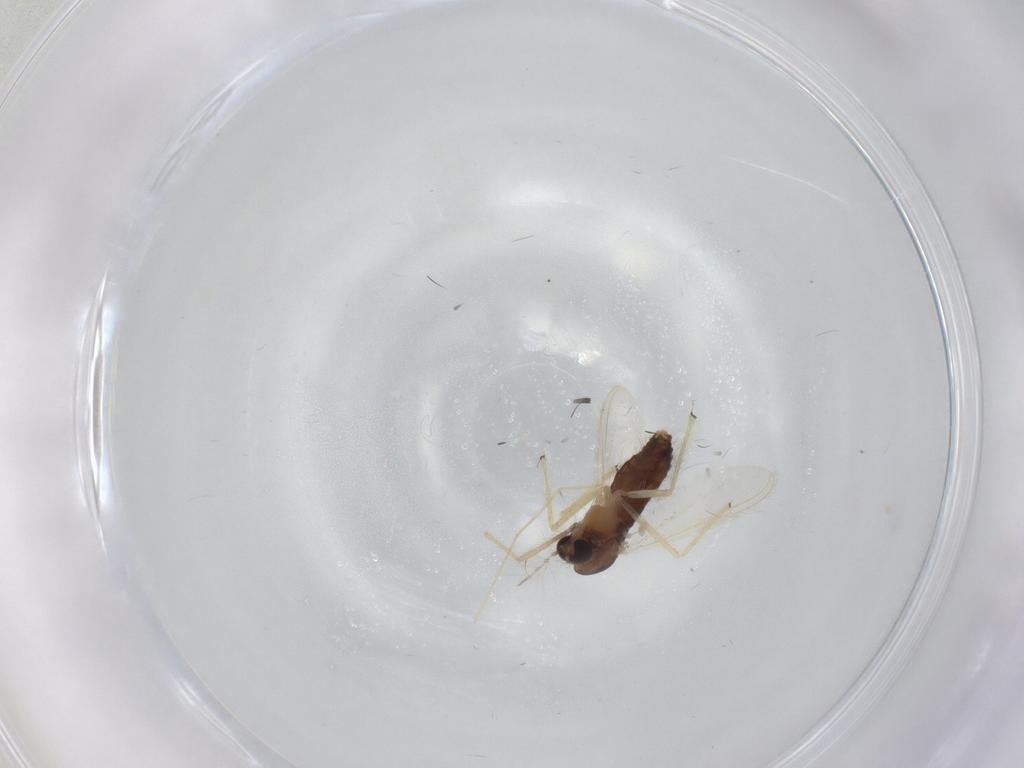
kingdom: Animalia
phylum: Arthropoda
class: Insecta
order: Diptera
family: Chironomidae
